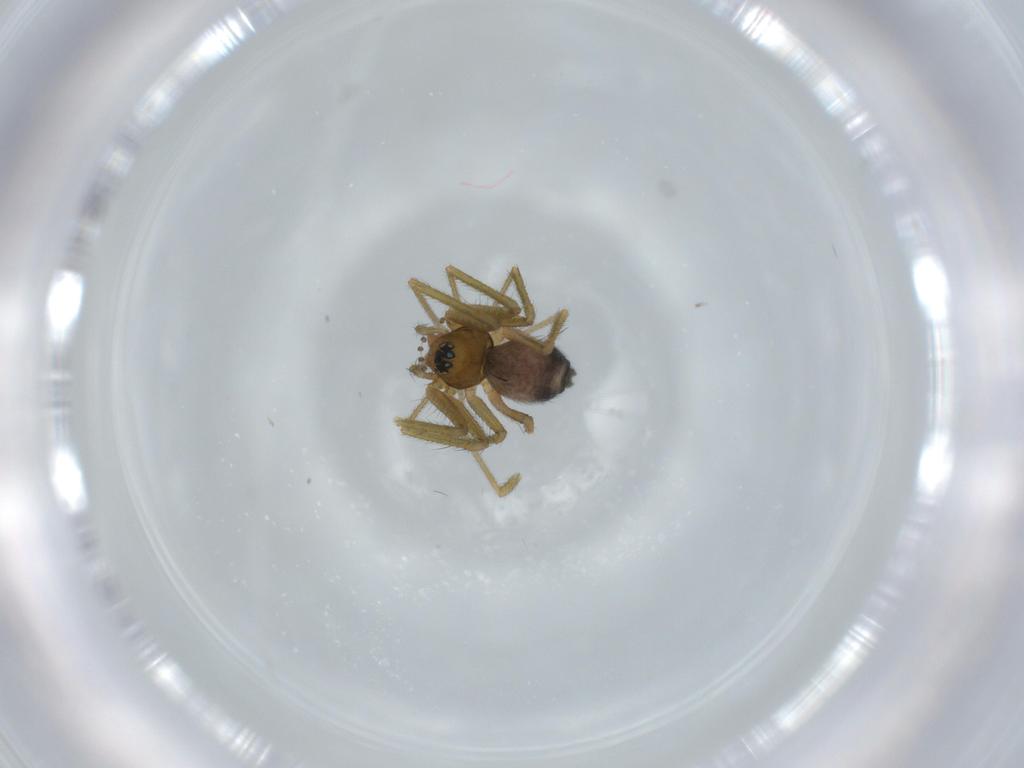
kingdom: Animalia
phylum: Arthropoda
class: Arachnida
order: Araneae
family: Linyphiidae
